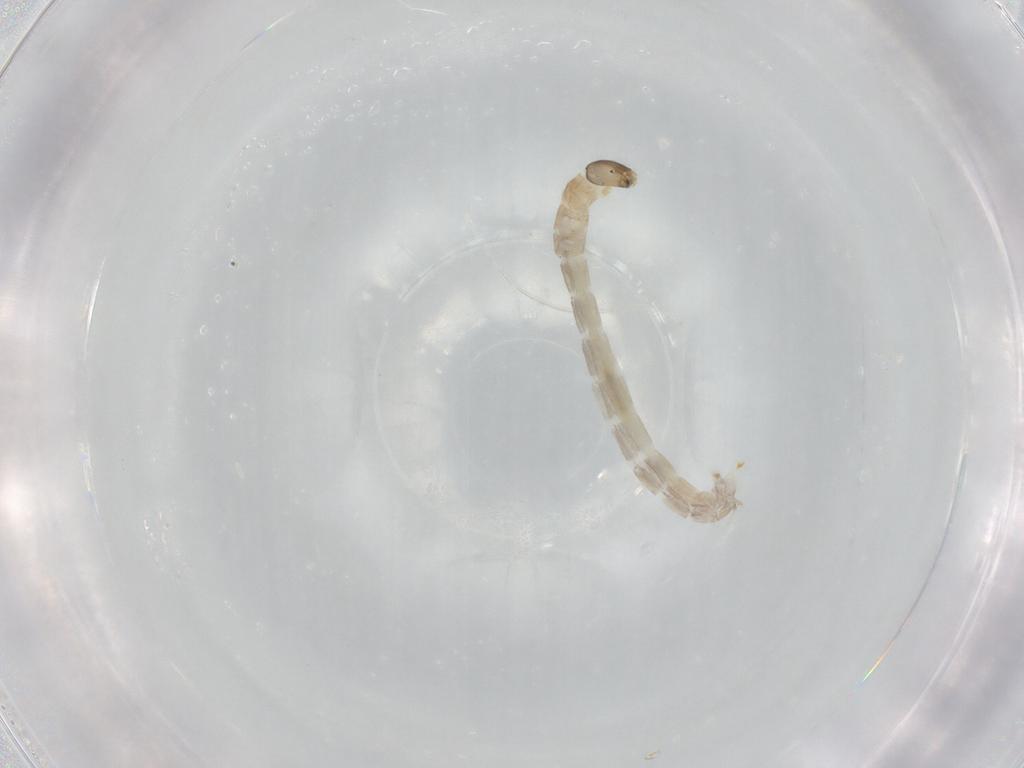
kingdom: Animalia
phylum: Arthropoda
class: Insecta
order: Diptera
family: Chironomidae
